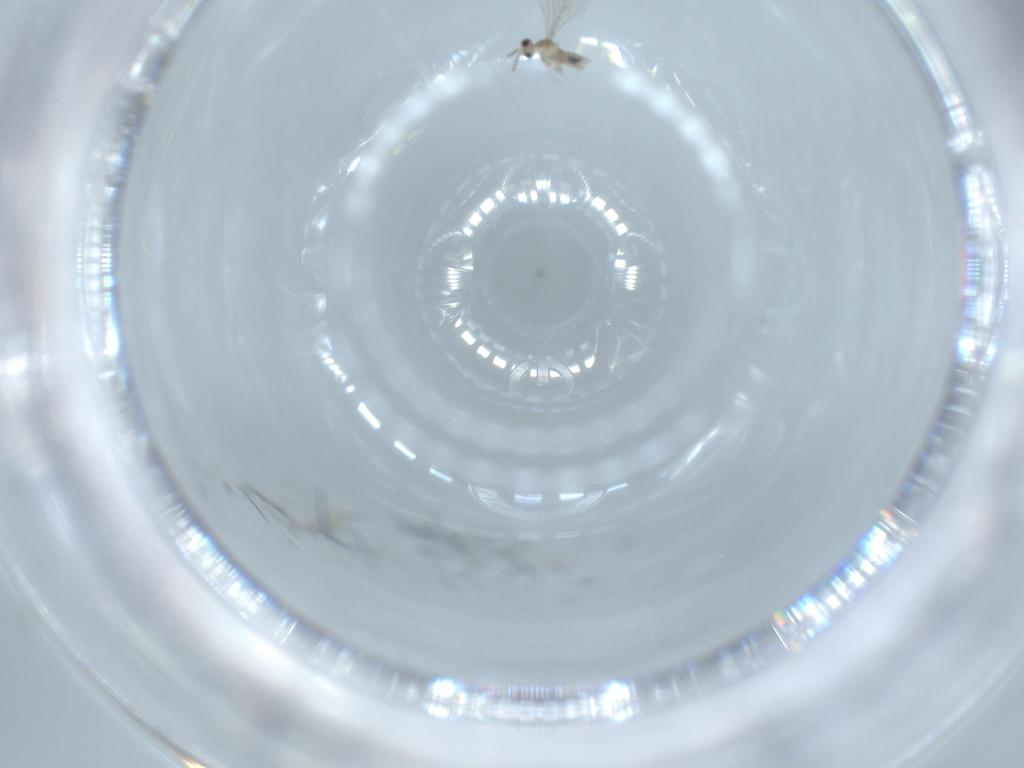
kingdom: Animalia
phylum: Arthropoda
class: Insecta
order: Diptera
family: Cecidomyiidae
